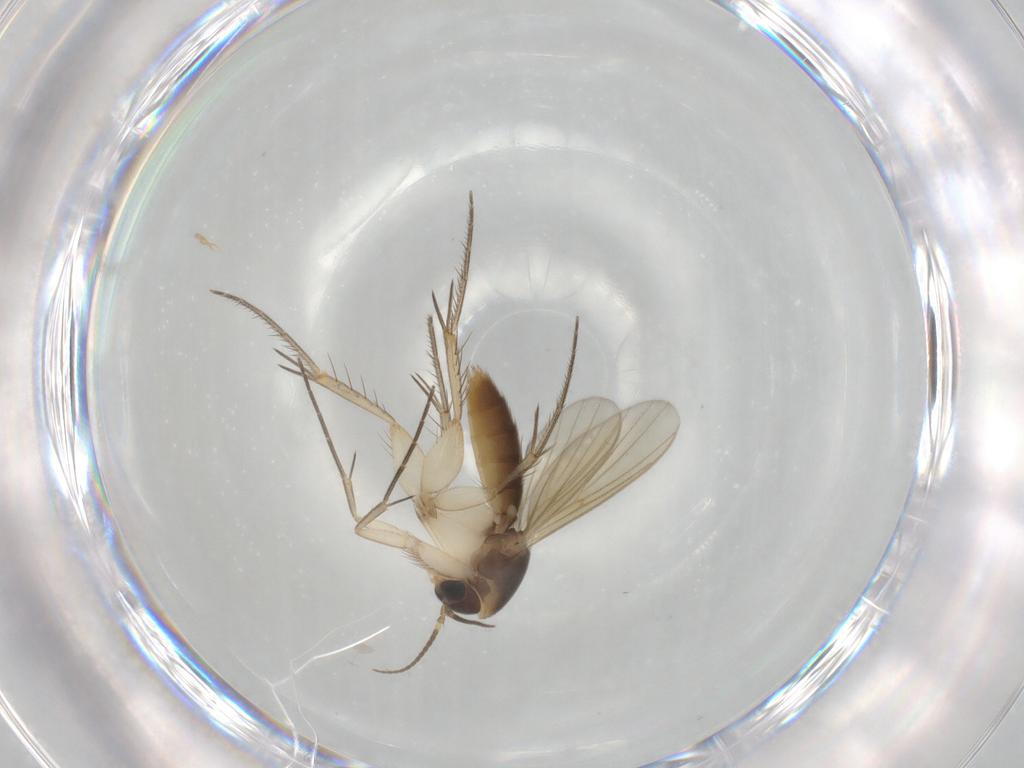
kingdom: Animalia
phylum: Arthropoda
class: Insecta
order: Diptera
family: Mycetophilidae
